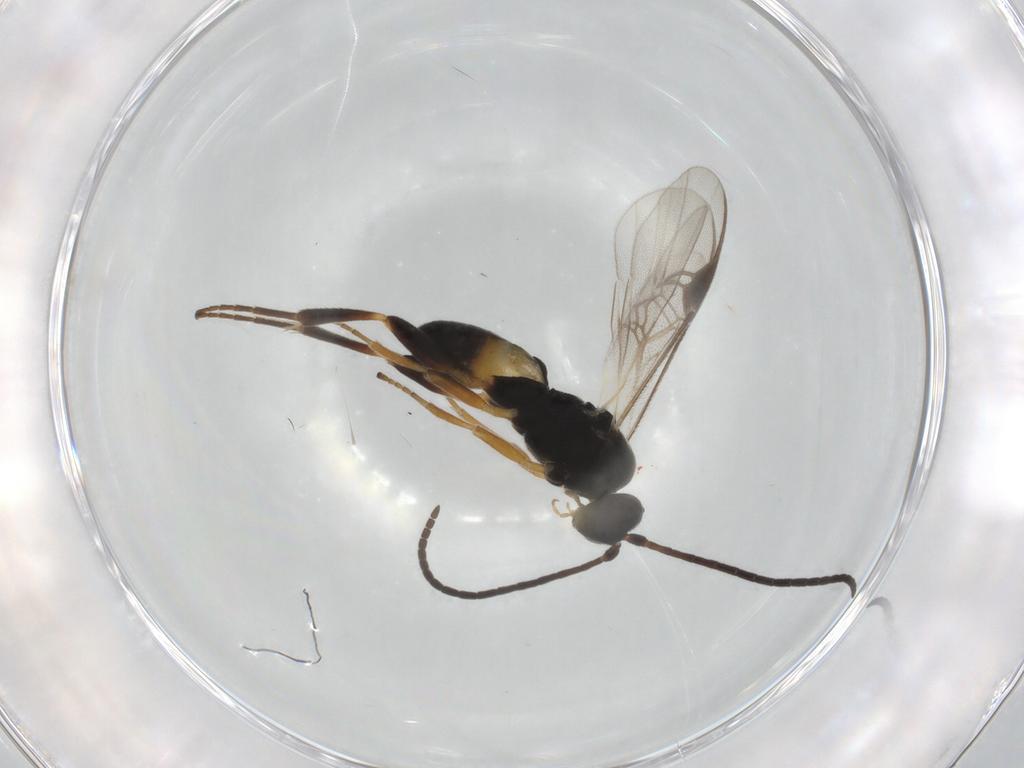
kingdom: Animalia
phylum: Arthropoda
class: Insecta
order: Hymenoptera
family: Braconidae
